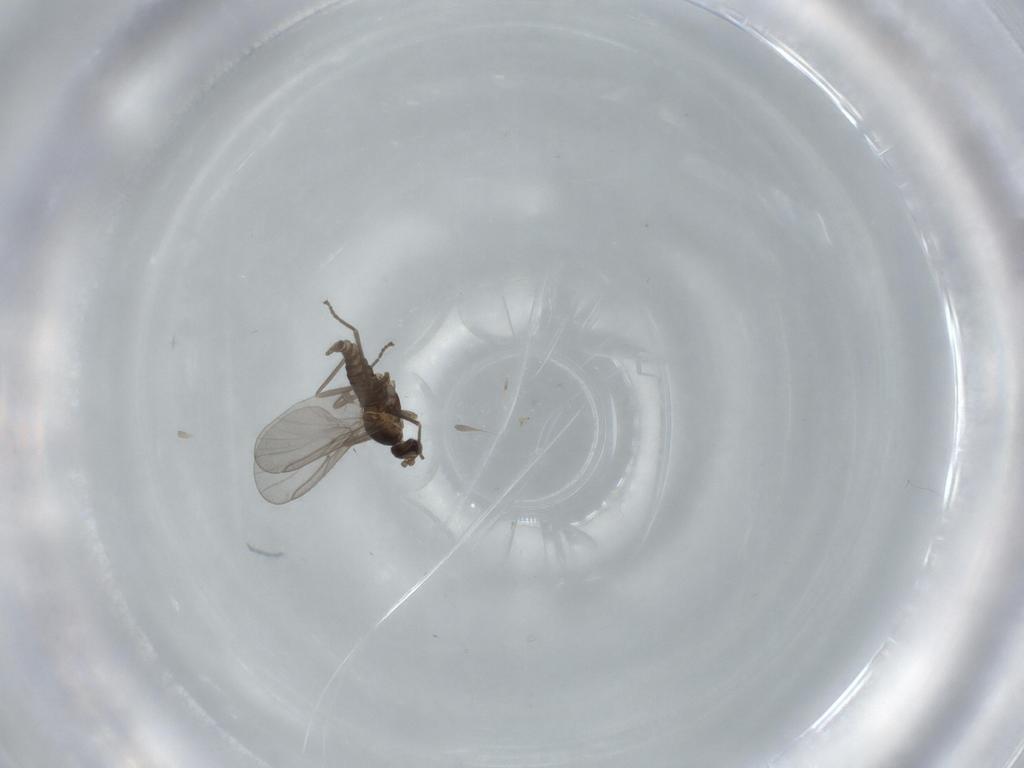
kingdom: Animalia
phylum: Arthropoda
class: Insecta
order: Diptera
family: Cecidomyiidae
